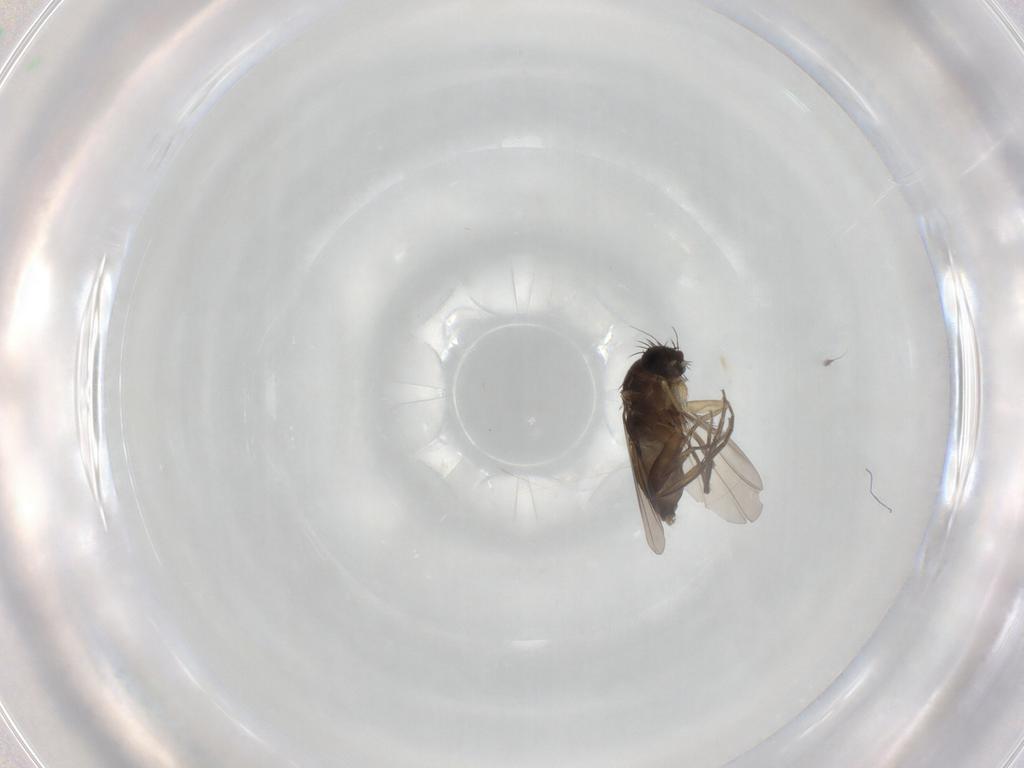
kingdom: Animalia
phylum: Arthropoda
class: Insecta
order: Diptera
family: Phoridae
